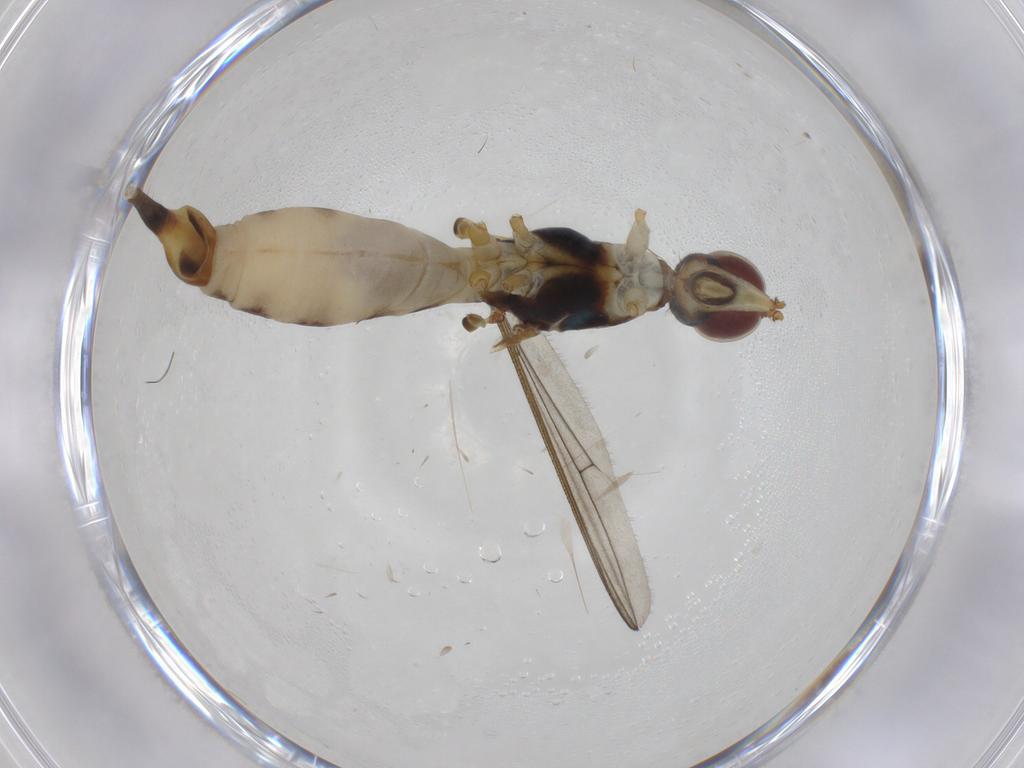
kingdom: Animalia
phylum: Arthropoda
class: Insecta
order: Diptera
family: Micropezidae
